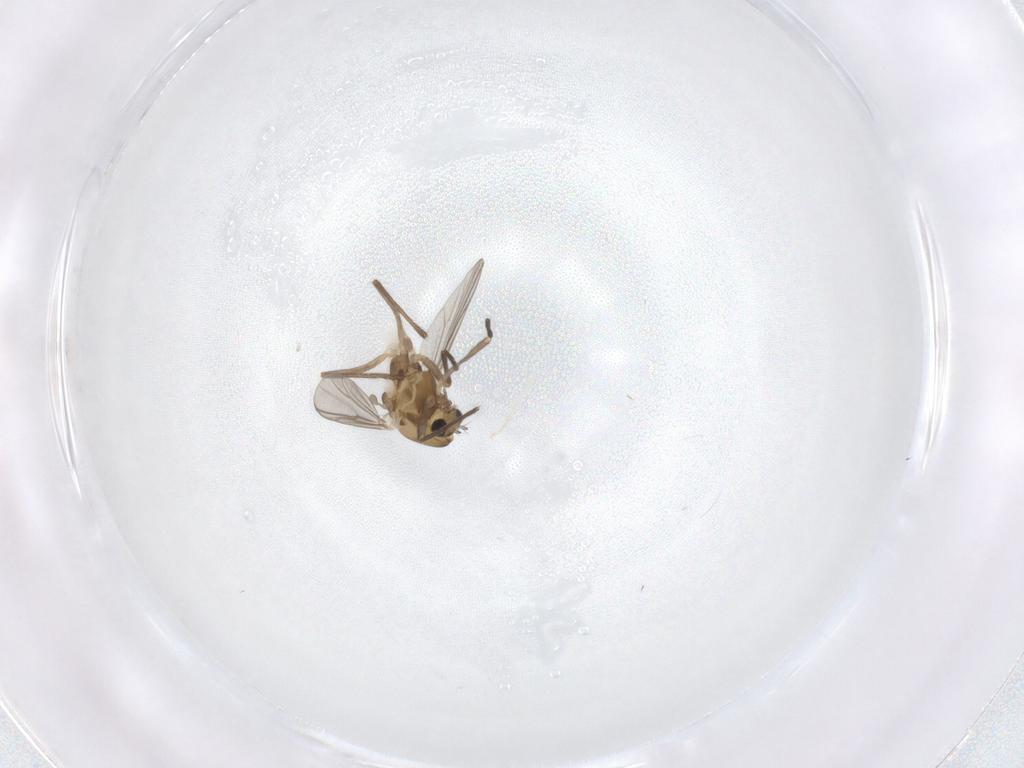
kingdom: Animalia
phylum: Arthropoda
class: Insecta
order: Diptera
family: Chironomidae
